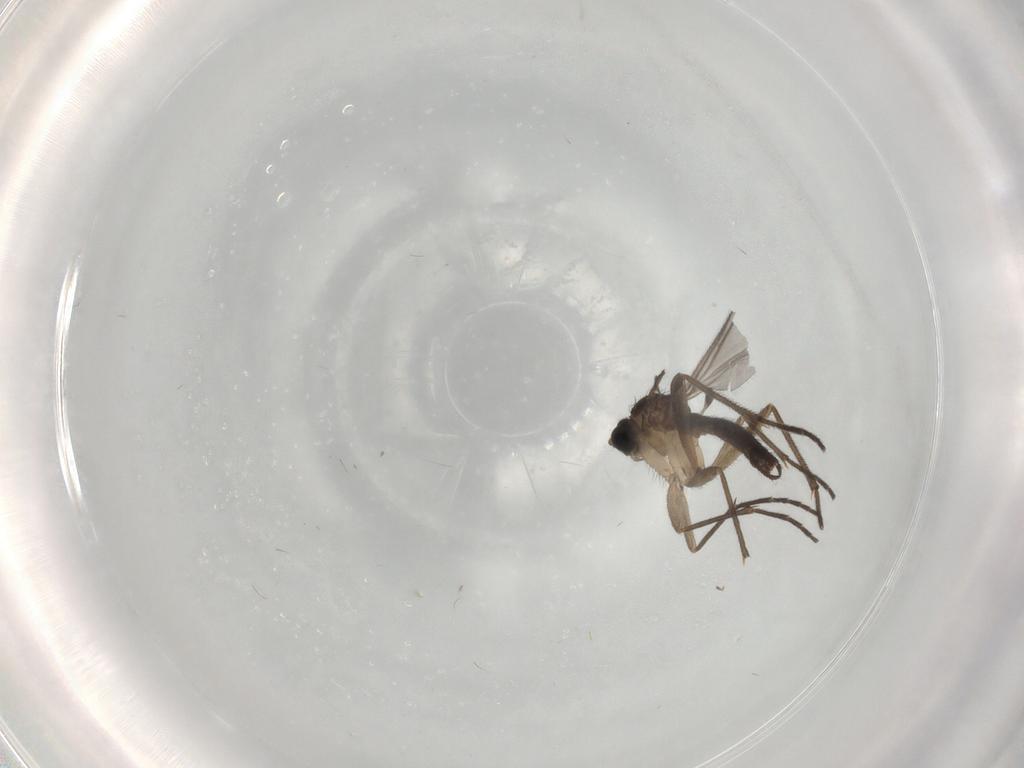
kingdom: Animalia
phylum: Arthropoda
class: Insecta
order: Diptera
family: Sciaridae
